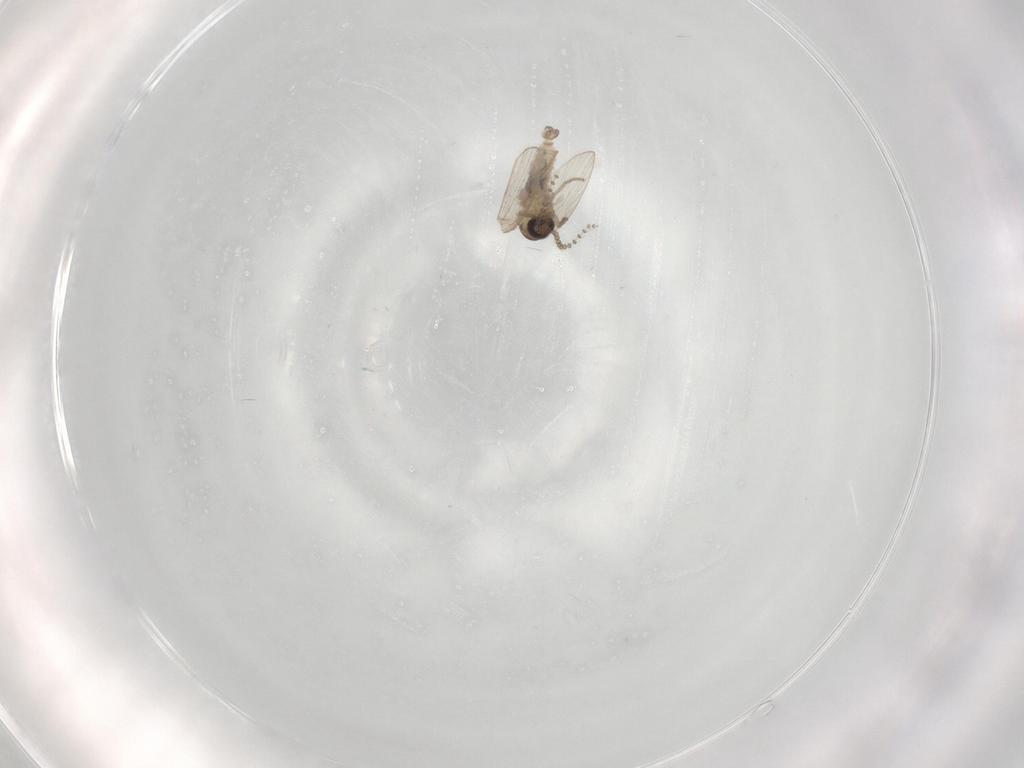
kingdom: Animalia
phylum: Arthropoda
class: Insecta
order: Diptera
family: Psychodidae
